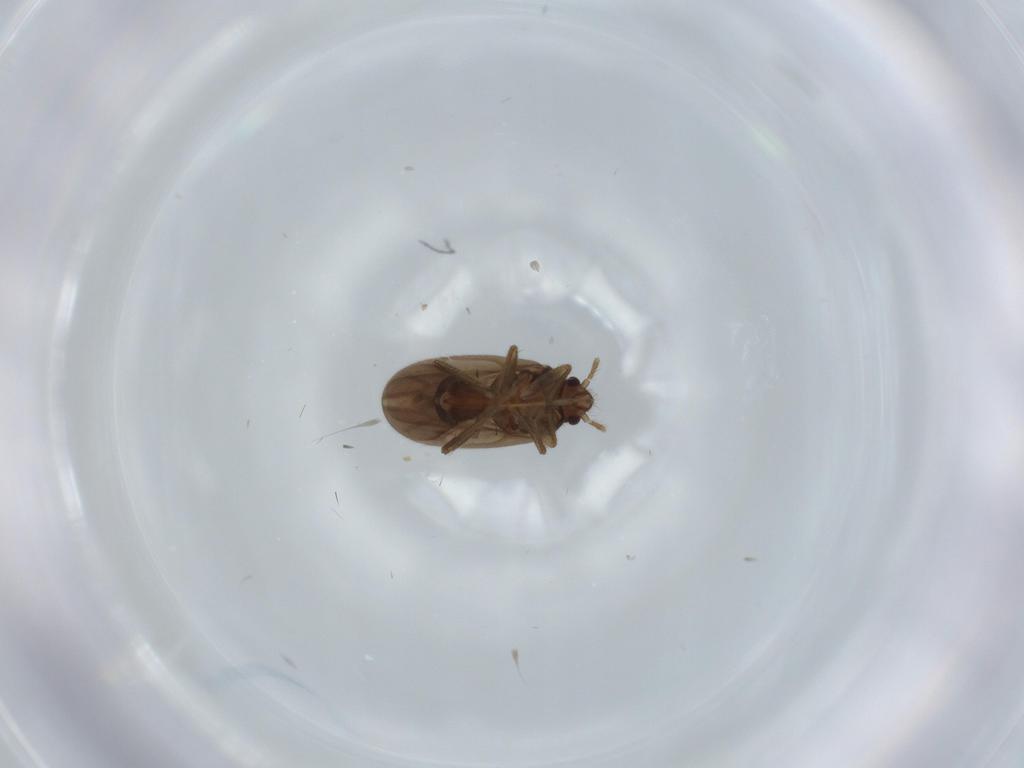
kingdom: Animalia
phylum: Arthropoda
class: Insecta
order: Hemiptera
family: Ceratocombidae
